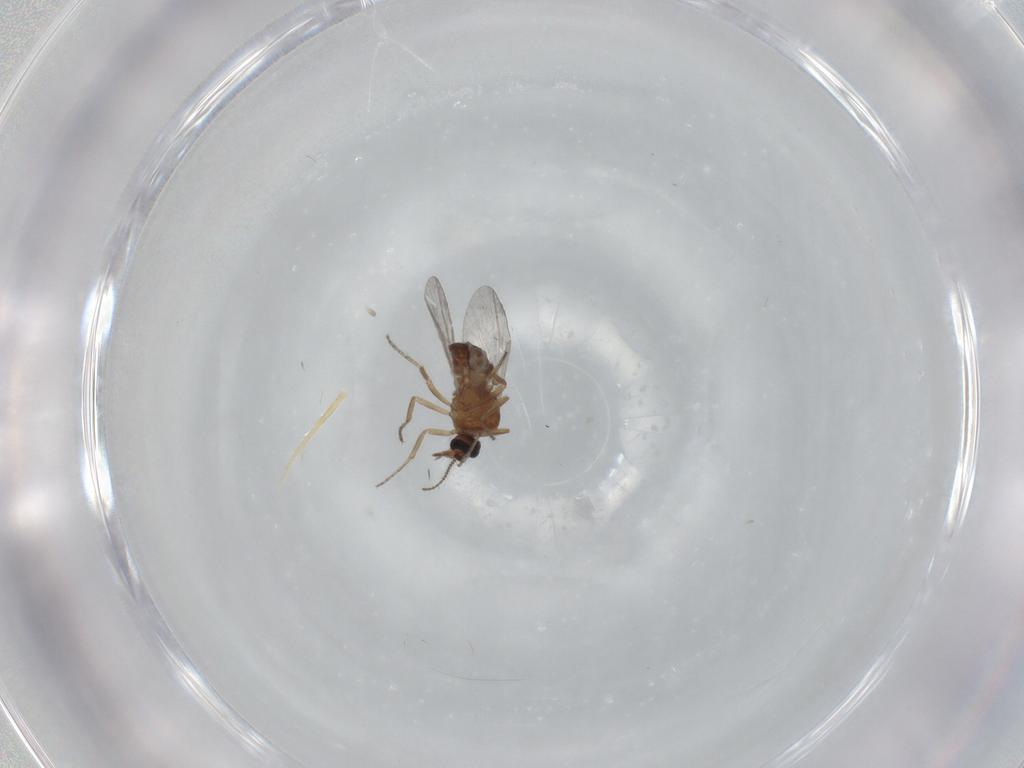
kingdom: Animalia
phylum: Arthropoda
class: Insecta
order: Diptera
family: Ceratopogonidae
